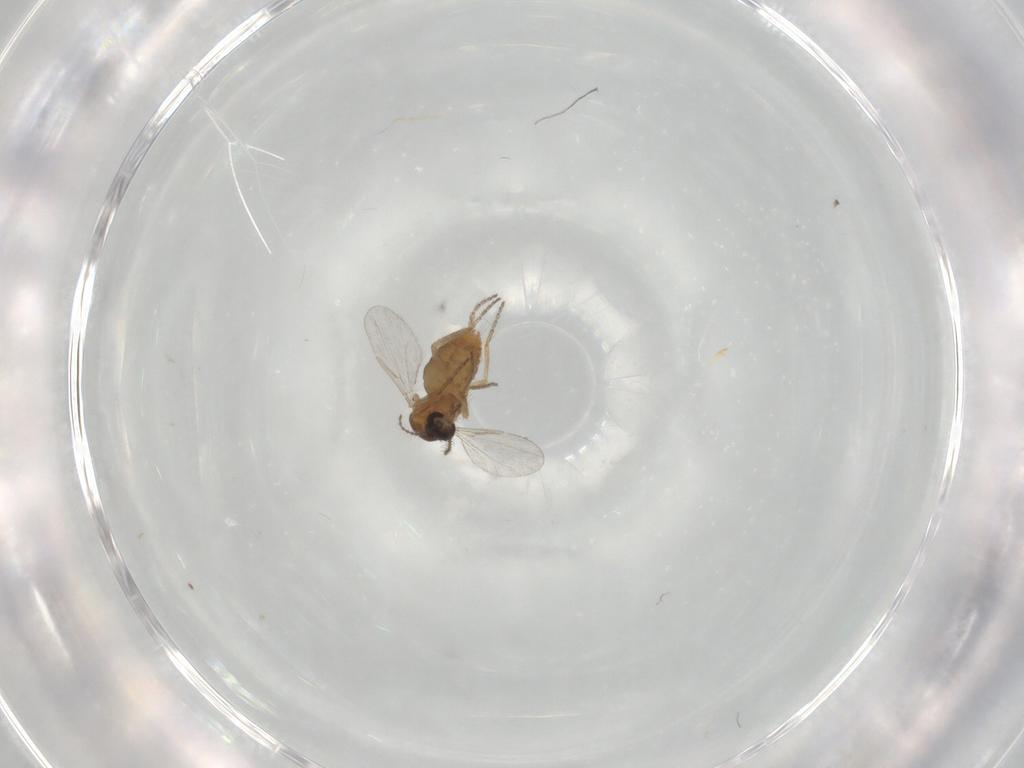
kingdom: Animalia
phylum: Arthropoda
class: Insecta
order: Diptera
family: Ceratopogonidae
